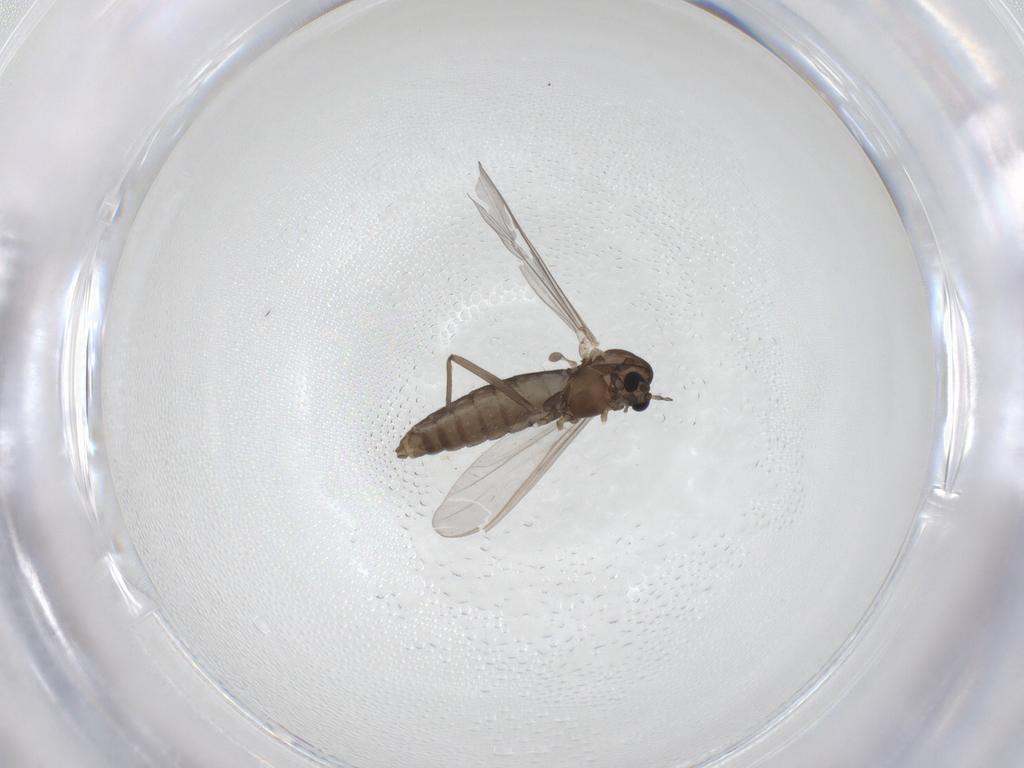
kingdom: Animalia
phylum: Arthropoda
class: Insecta
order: Diptera
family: Chironomidae
